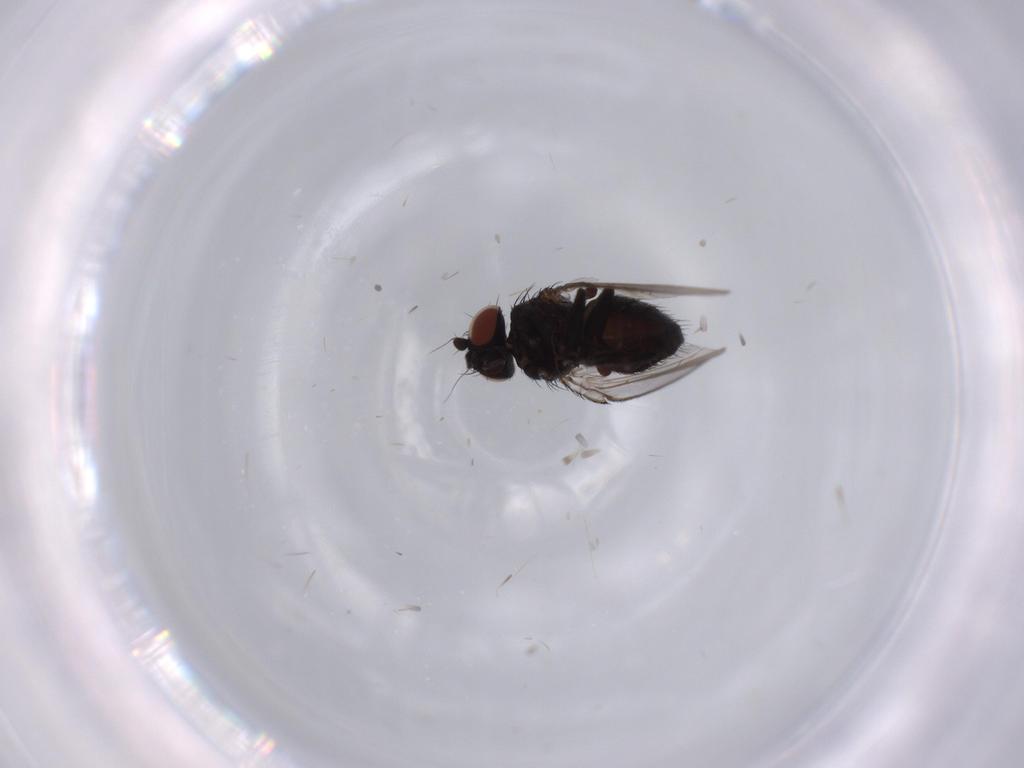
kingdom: Animalia
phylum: Arthropoda
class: Insecta
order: Diptera
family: Milichiidae
